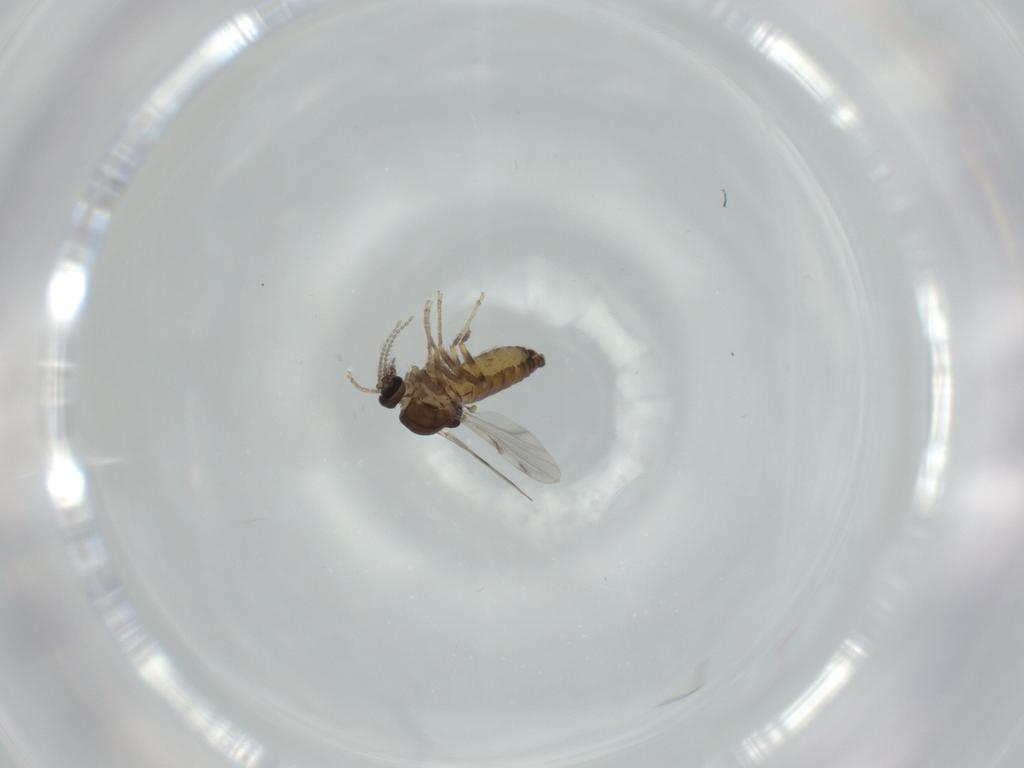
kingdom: Animalia
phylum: Arthropoda
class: Insecta
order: Diptera
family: Ceratopogonidae
